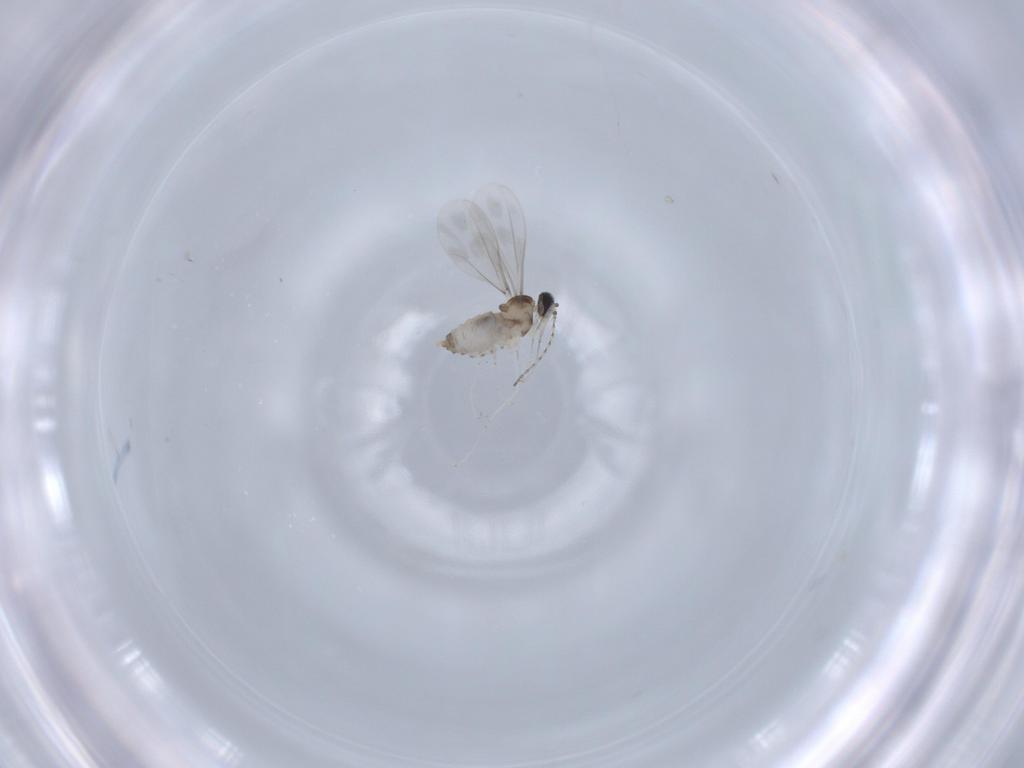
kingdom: Animalia
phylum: Arthropoda
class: Insecta
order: Diptera
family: Cecidomyiidae
